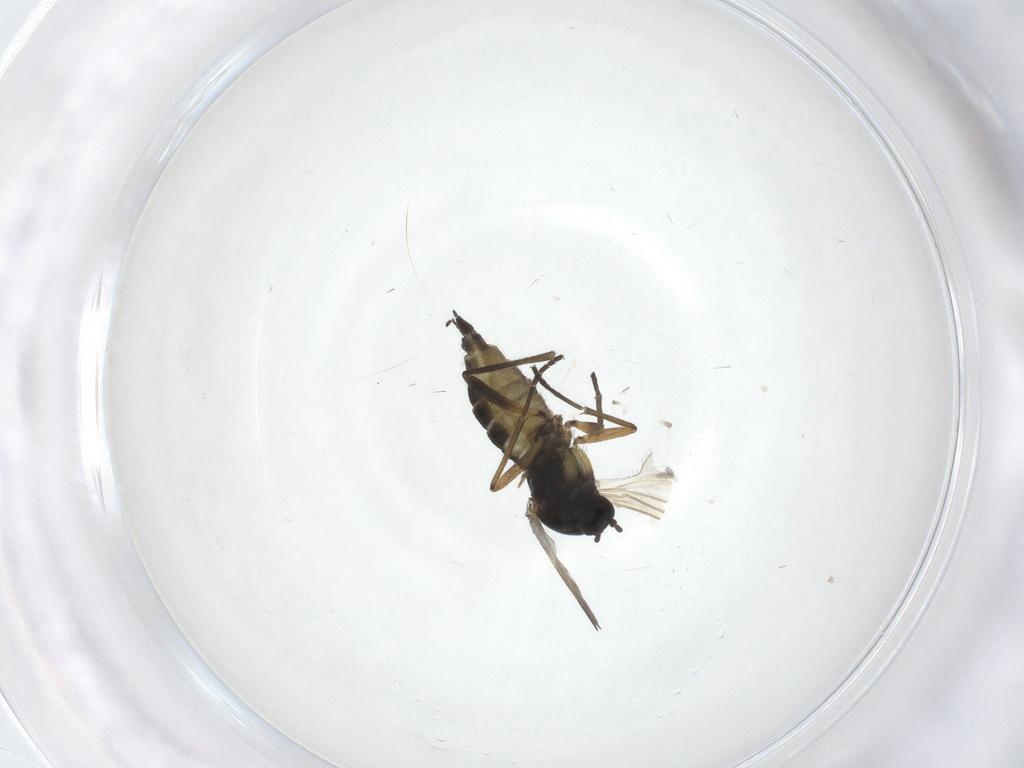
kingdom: Animalia
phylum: Arthropoda
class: Insecta
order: Diptera
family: Sciaridae
